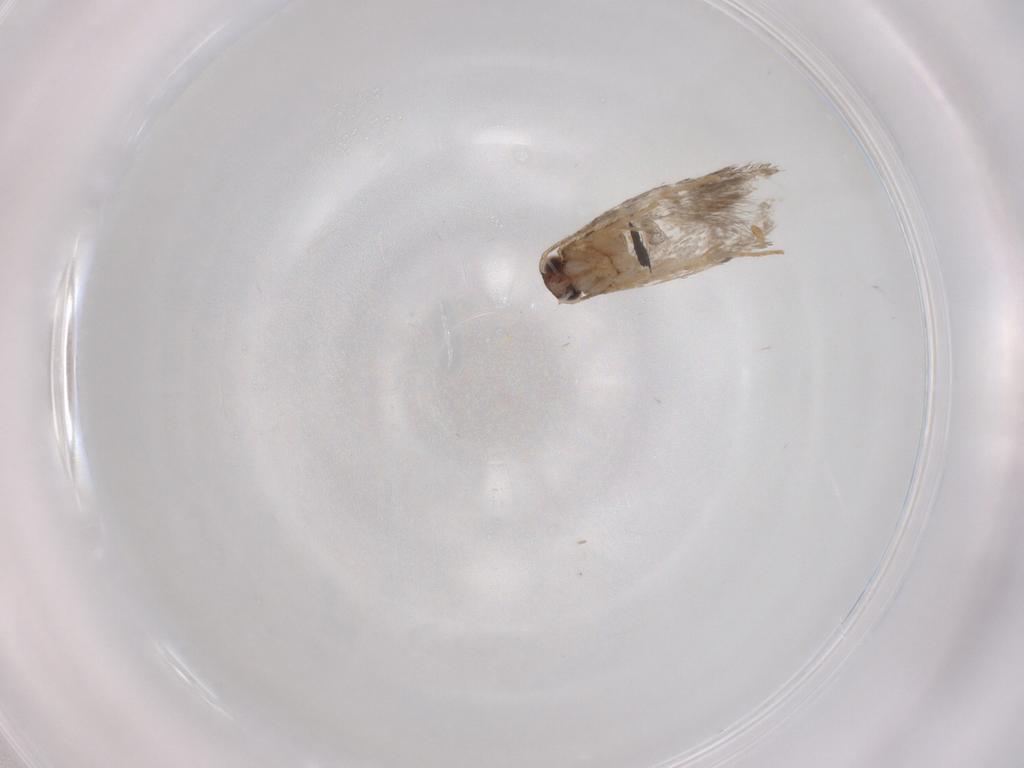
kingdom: Animalia
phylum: Arthropoda
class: Insecta
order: Lepidoptera
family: Tineidae
